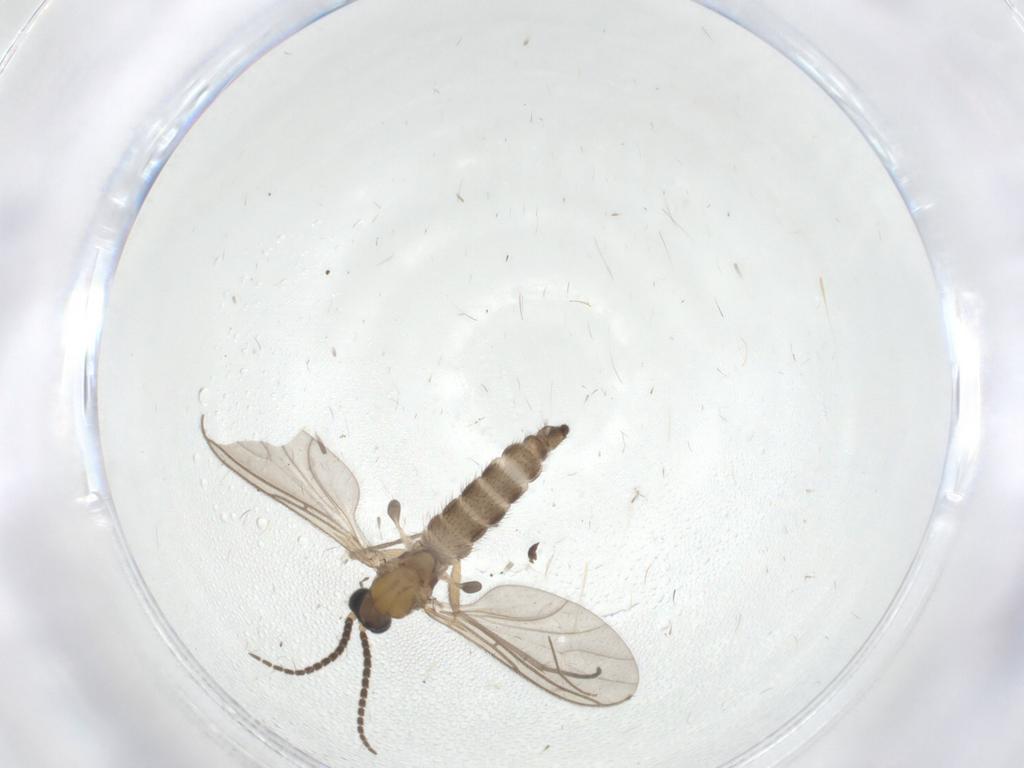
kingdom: Animalia
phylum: Arthropoda
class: Insecta
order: Diptera
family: Sciaridae
